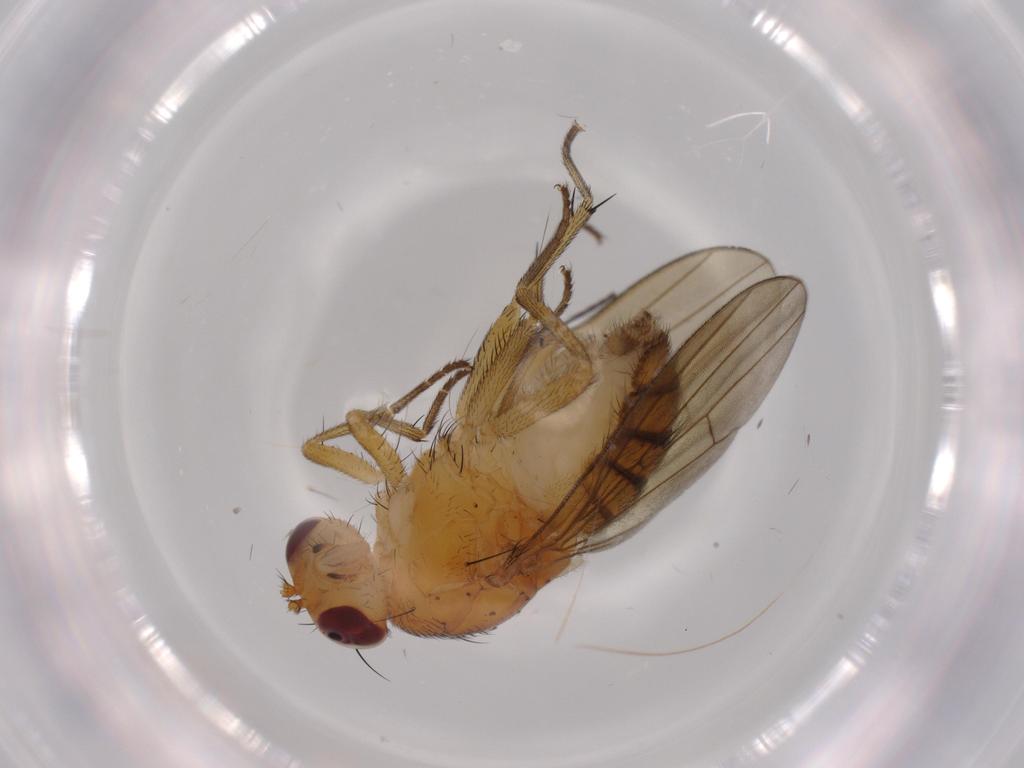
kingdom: Animalia
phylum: Arthropoda
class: Insecta
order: Diptera
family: Lauxaniidae
